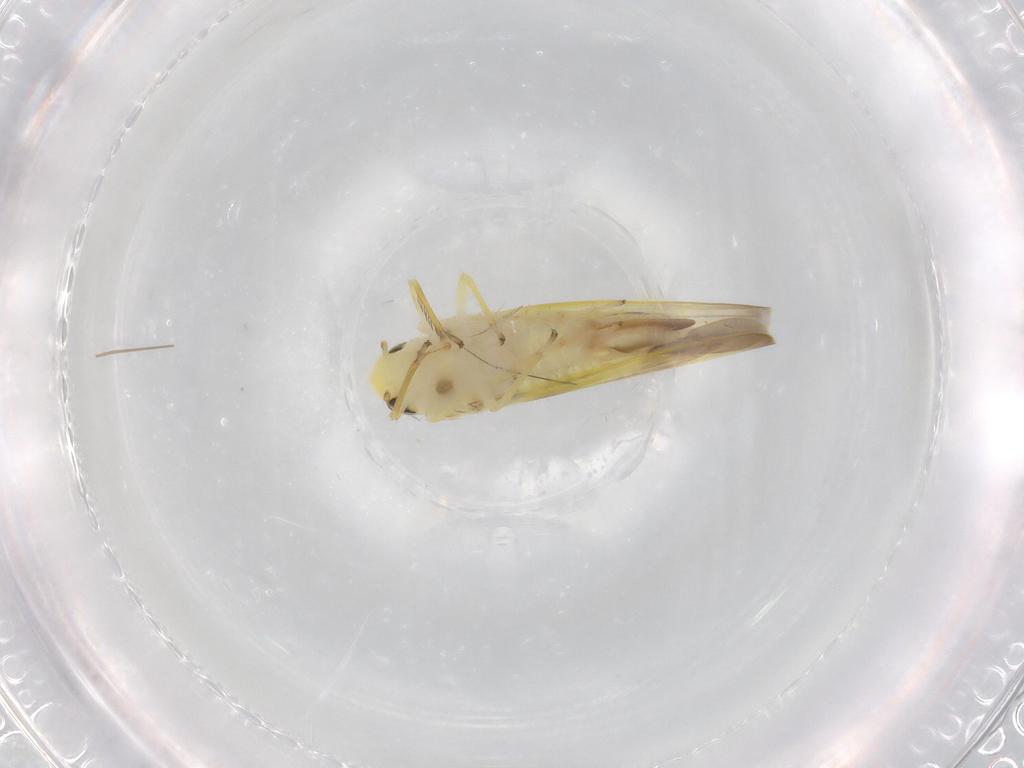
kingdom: Animalia
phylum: Arthropoda
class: Insecta
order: Hemiptera
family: Cicadellidae
